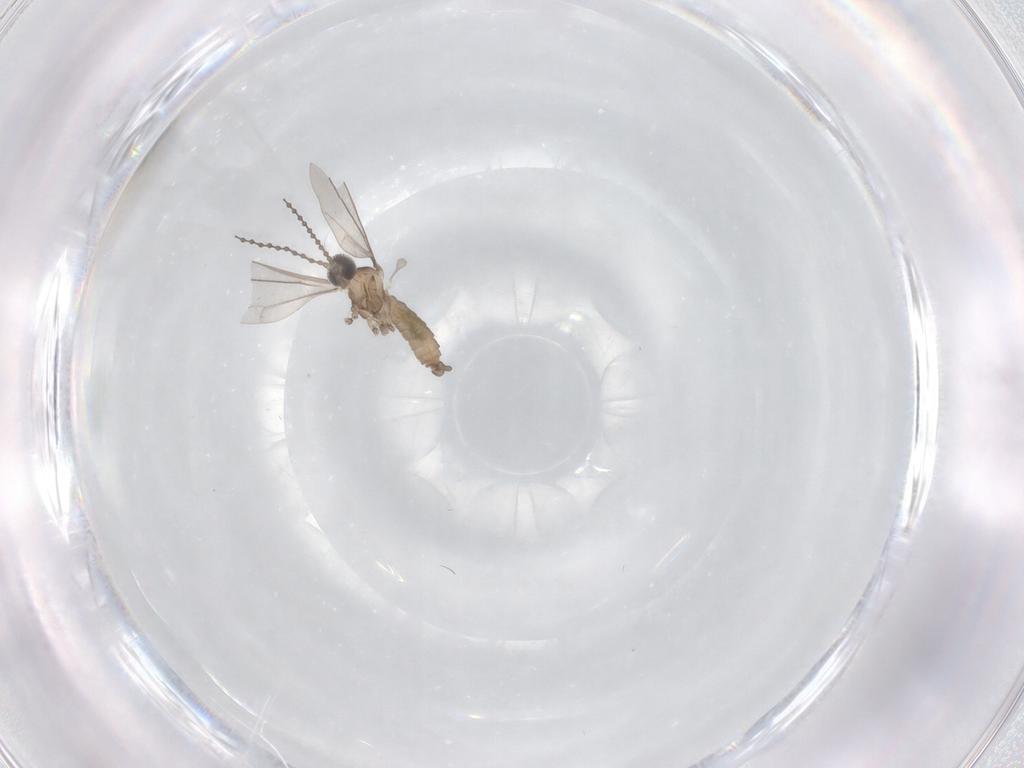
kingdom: Animalia
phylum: Arthropoda
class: Insecta
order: Diptera
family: Cecidomyiidae
